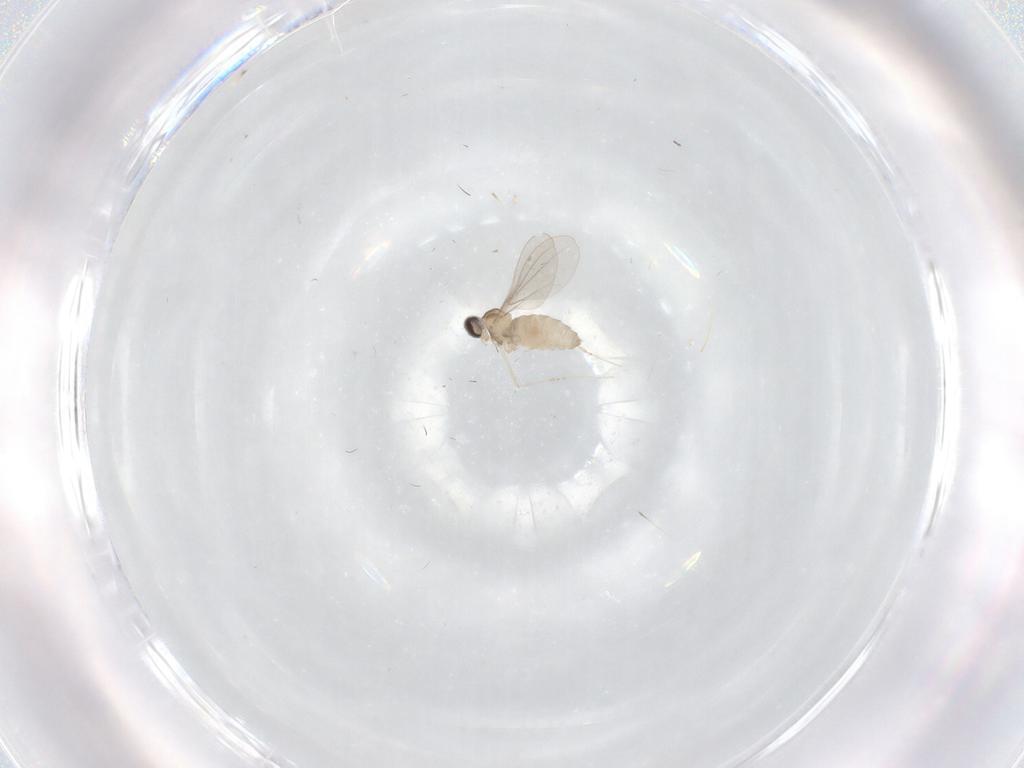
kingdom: Animalia
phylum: Arthropoda
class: Insecta
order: Diptera
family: Cecidomyiidae
